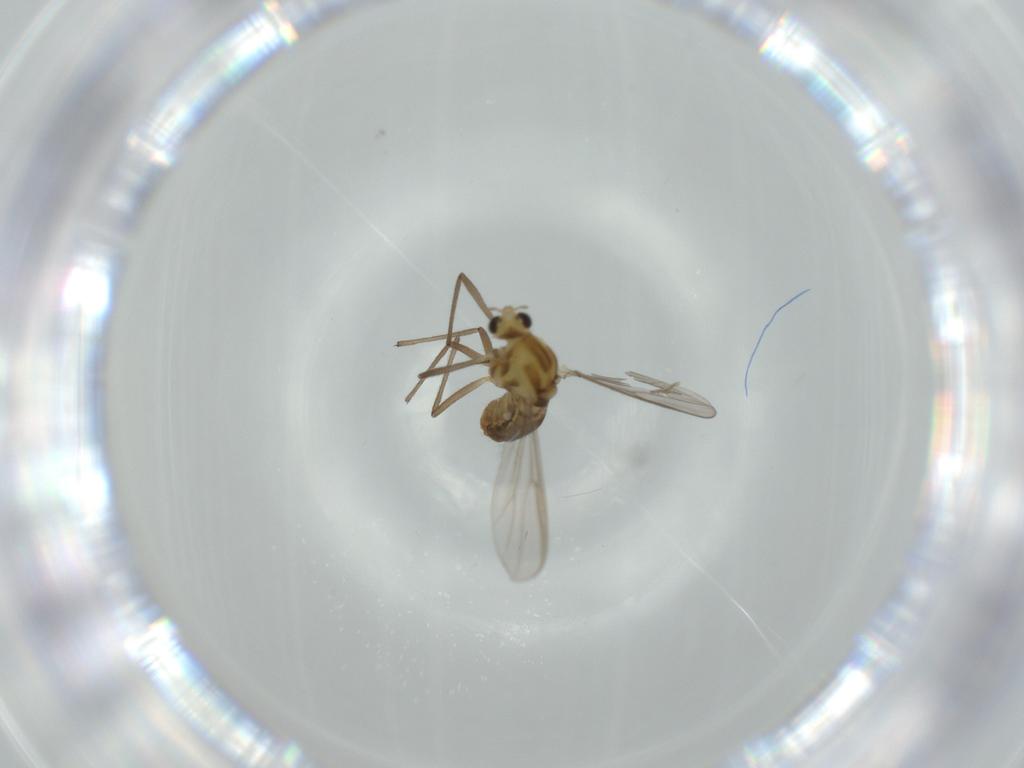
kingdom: Animalia
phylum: Arthropoda
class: Insecta
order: Diptera
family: Chironomidae
